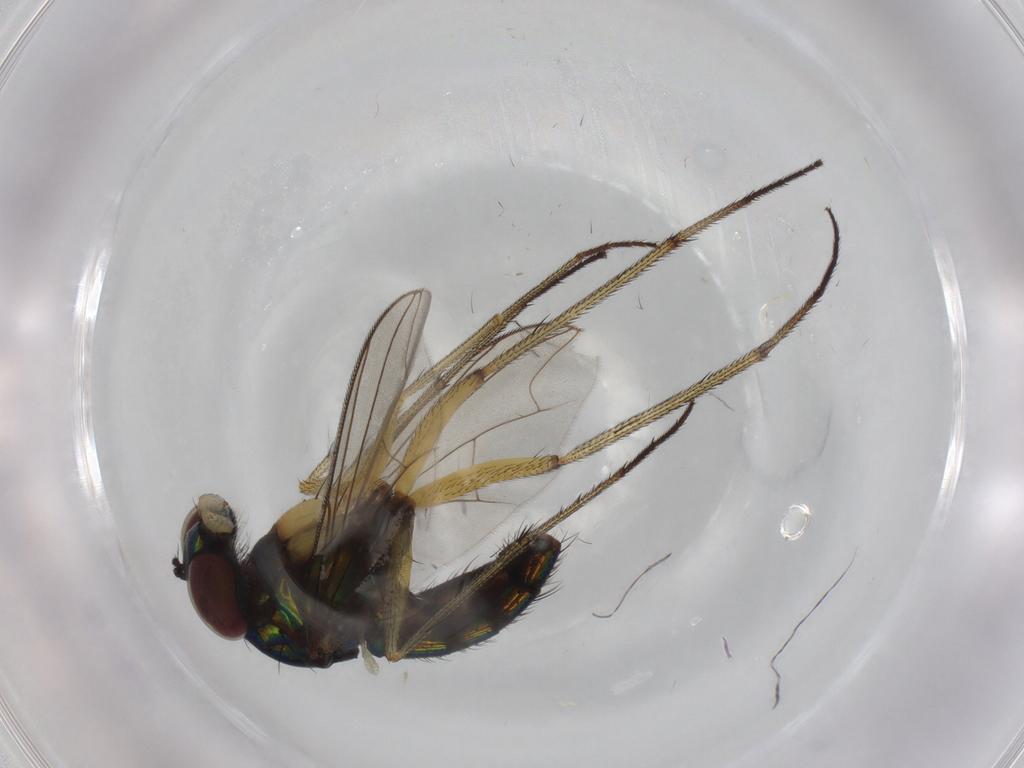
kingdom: Animalia
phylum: Arthropoda
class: Insecta
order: Diptera
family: Dolichopodidae
